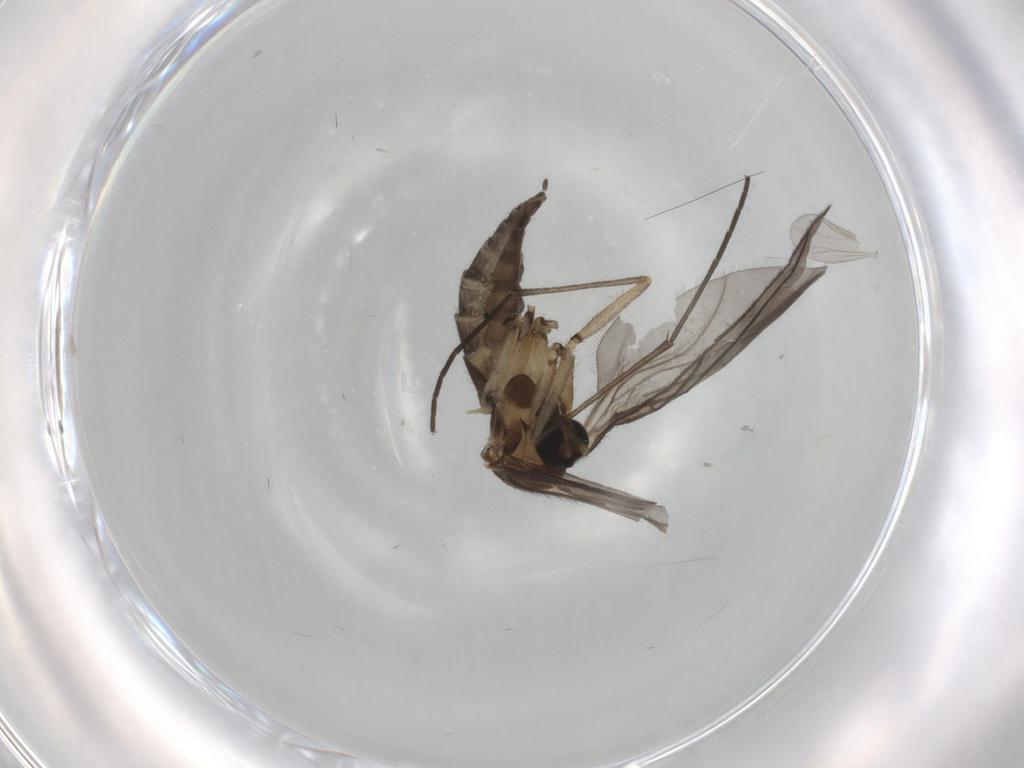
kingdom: Animalia
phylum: Arthropoda
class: Insecta
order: Diptera
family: Sciaridae
